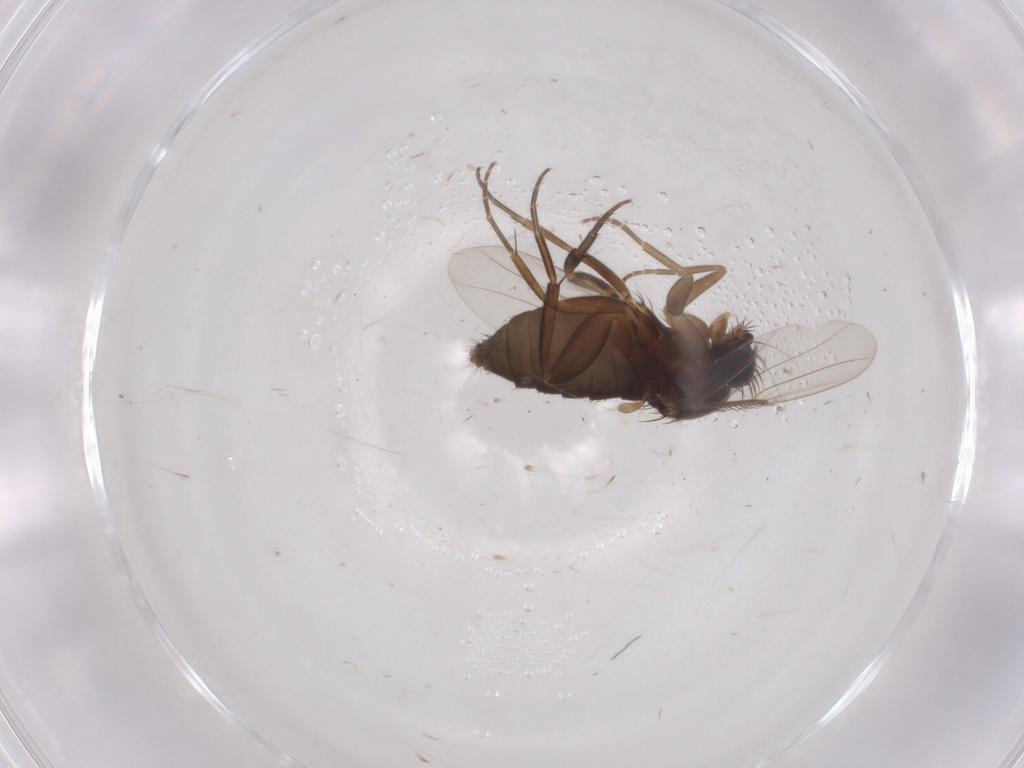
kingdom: Animalia
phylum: Arthropoda
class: Insecta
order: Diptera
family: Phoridae
